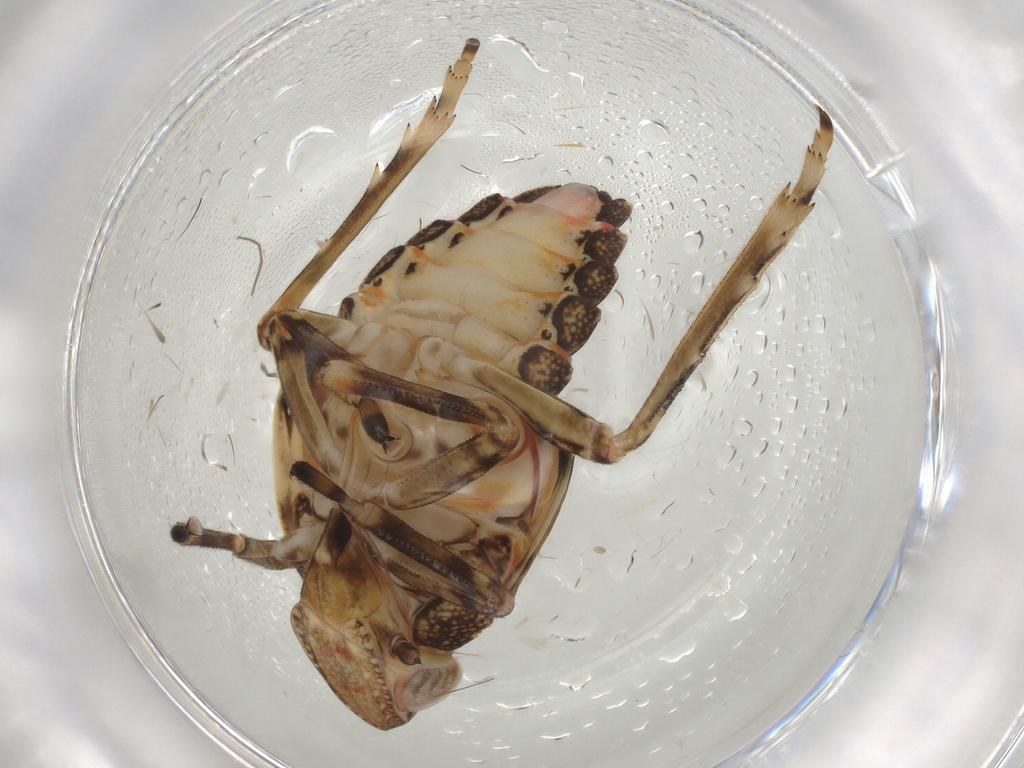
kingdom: Animalia
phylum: Arthropoda
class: Insecta
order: Hemiptera
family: Tropiduchidae
